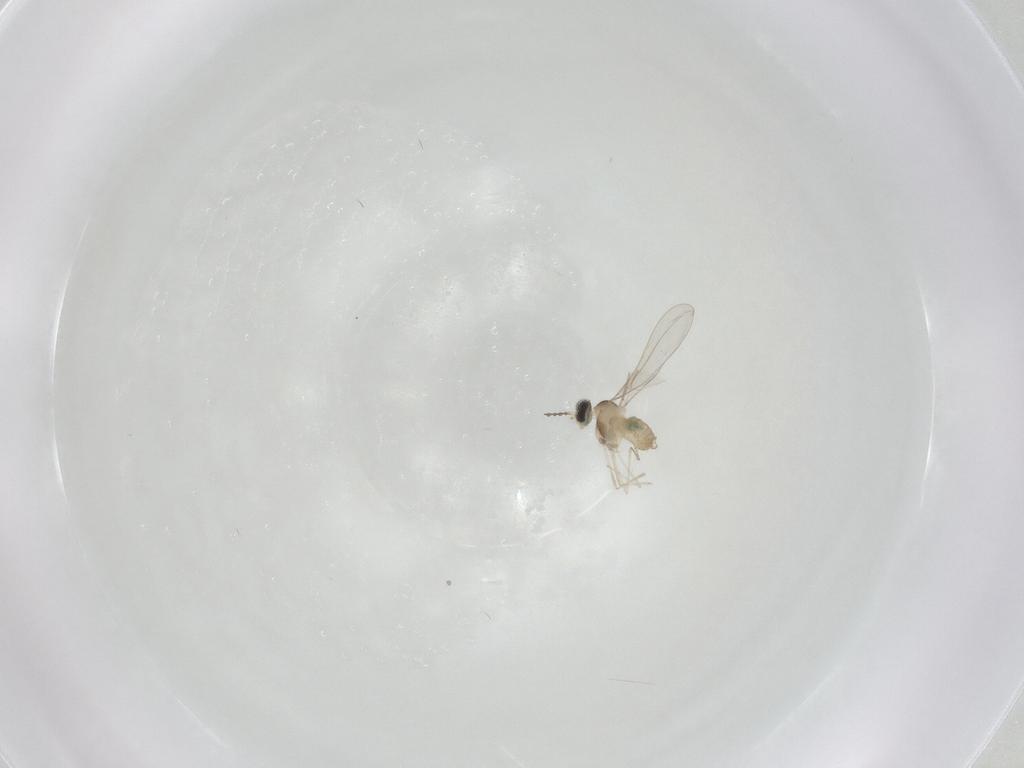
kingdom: Animalia
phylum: Arthropoda
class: Insecta
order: Diptera
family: Cecidomyiidae
